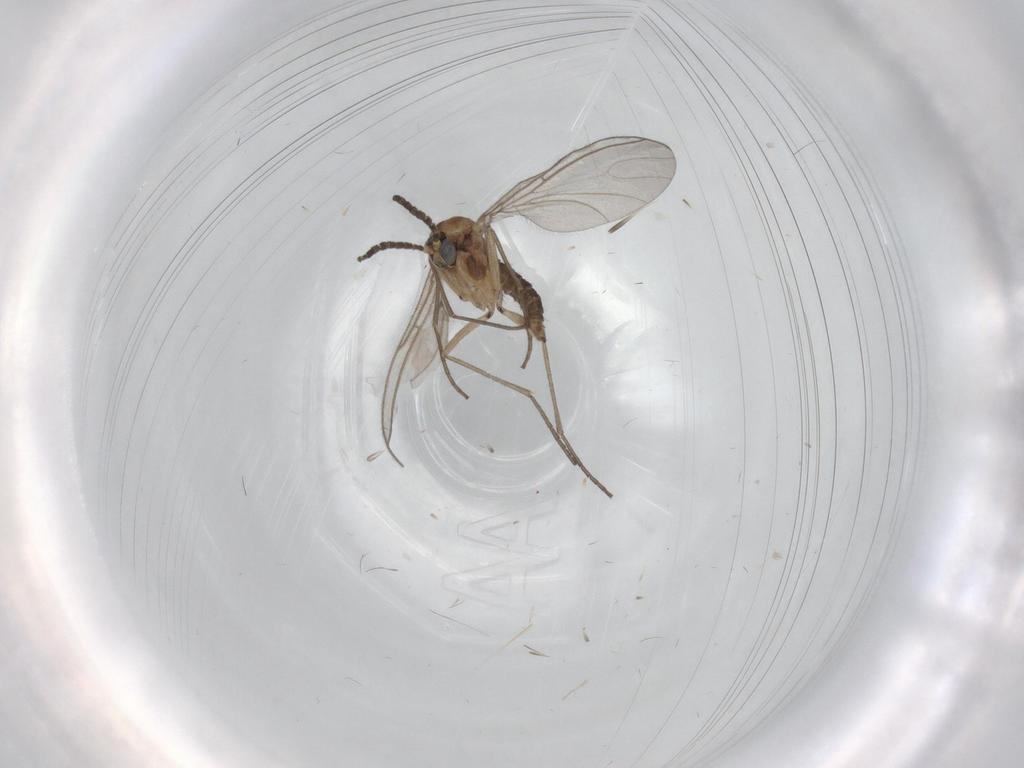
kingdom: Animalia
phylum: Arthropoda
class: Insecta
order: Diptera
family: Sciaridae
